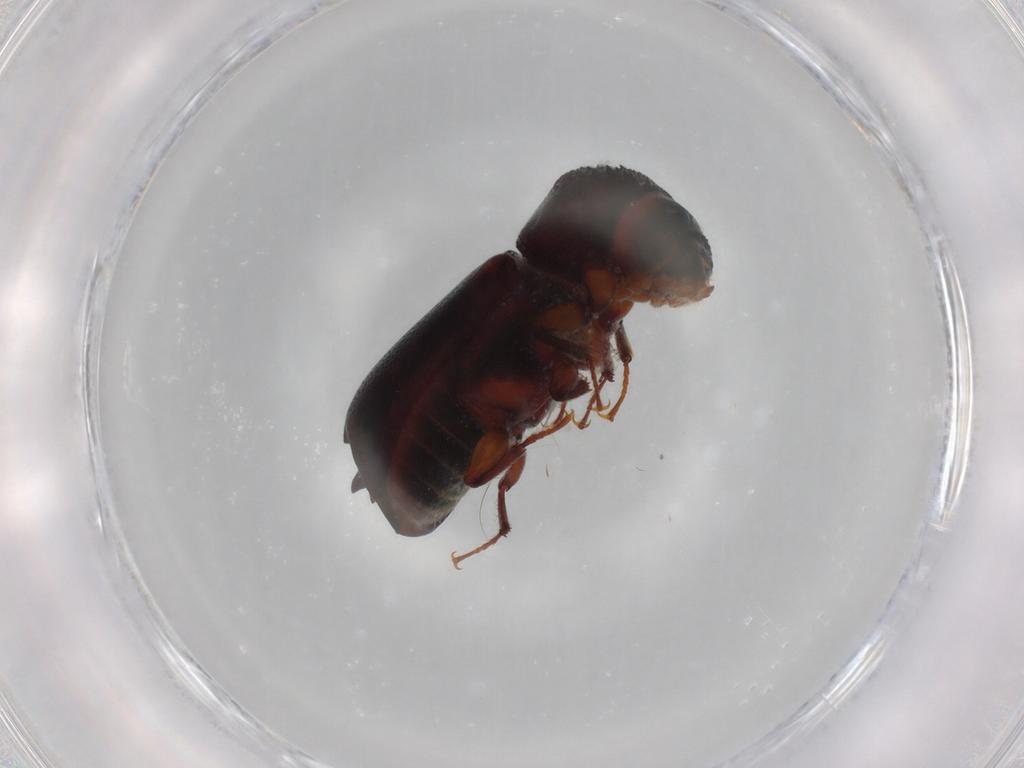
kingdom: Animalia
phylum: Arthropoda
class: Insecta
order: Coleoptera
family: Bostrichidae
